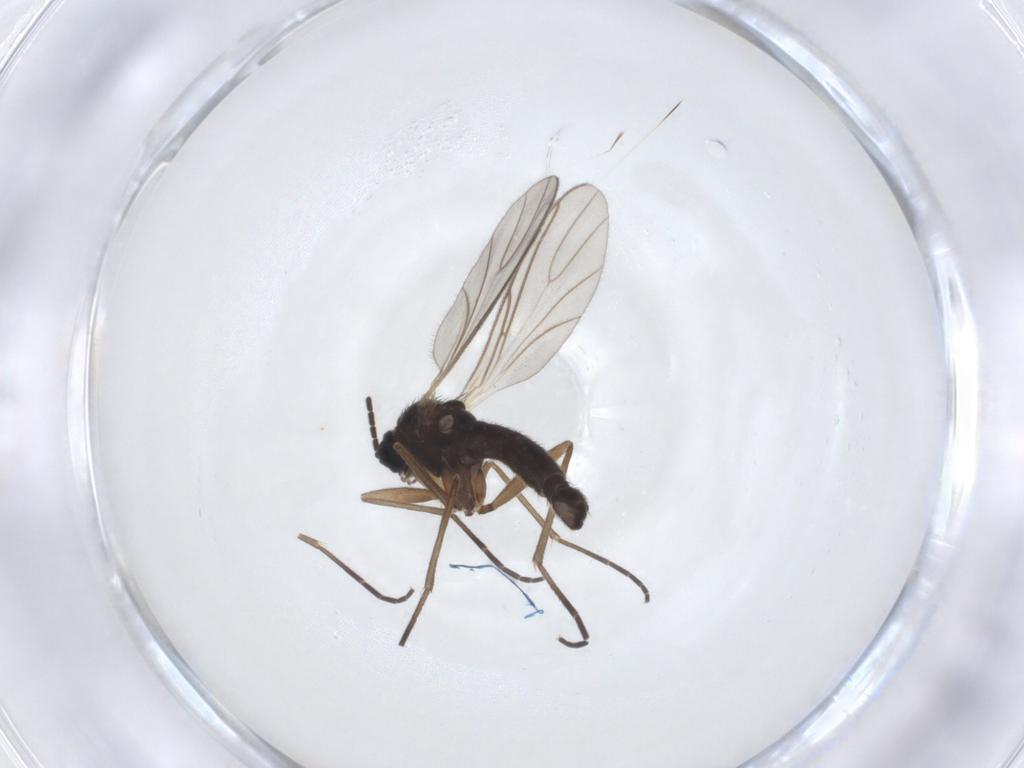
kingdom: Animalia
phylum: Arthropoda
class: Insecta
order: Diptera
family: Sciaridae
